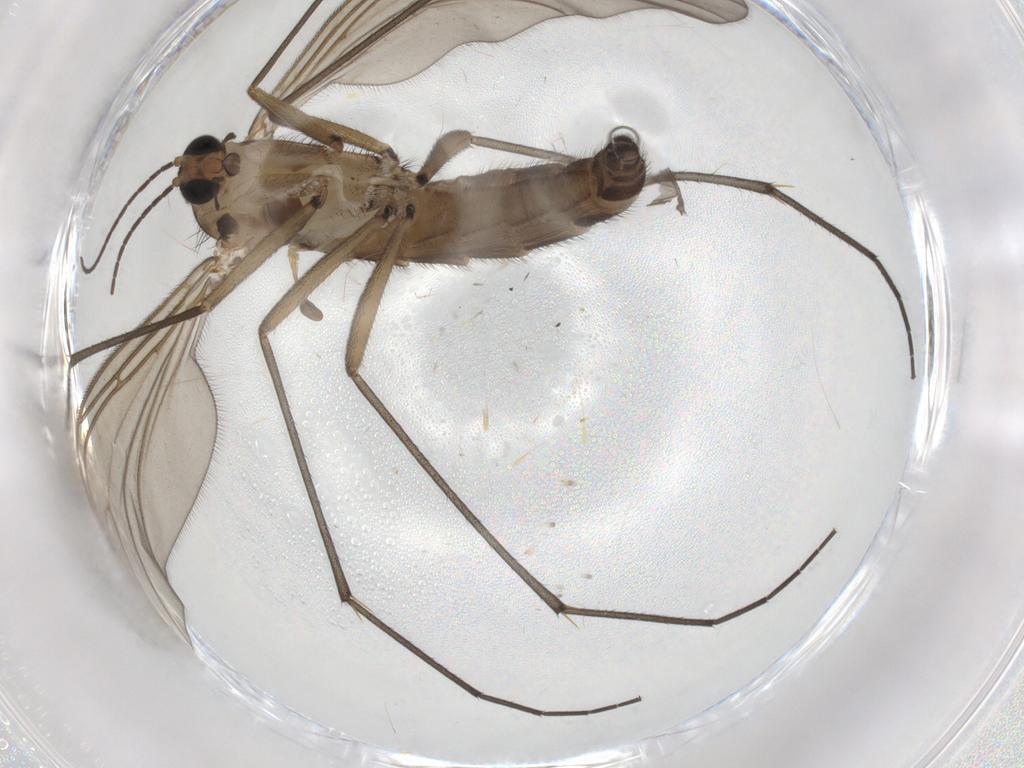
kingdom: Animalia
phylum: Arthropoda
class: Insecta
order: Diptera
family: Sciaridae
